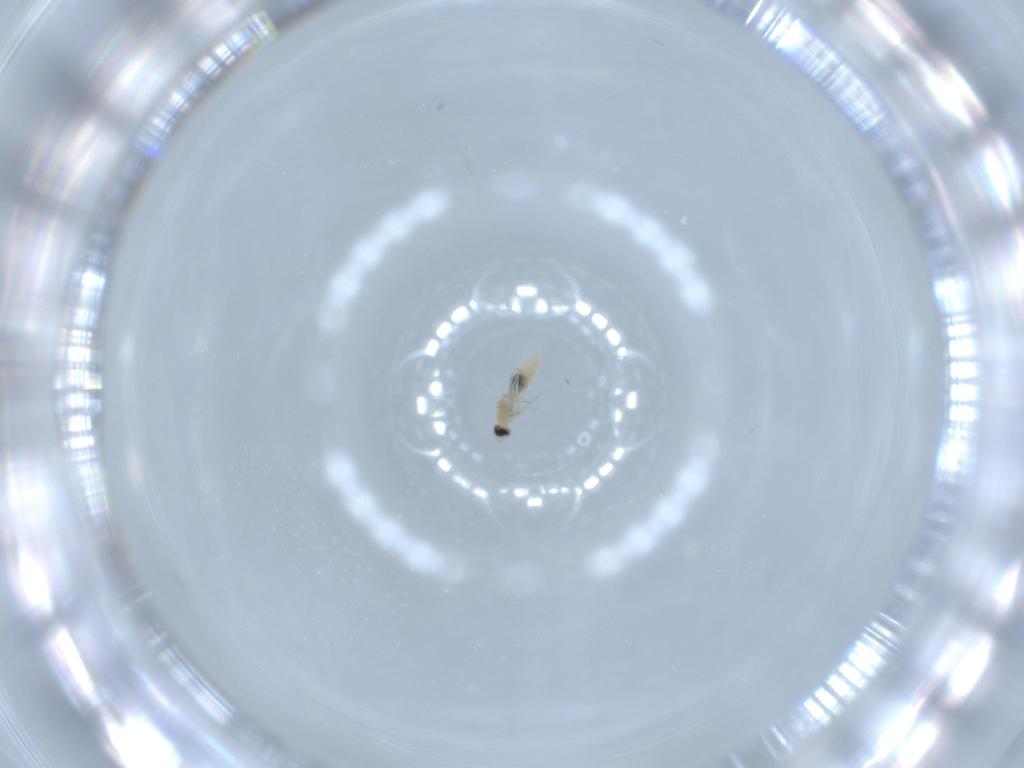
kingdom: Animalia
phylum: Arthropoda
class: Insecta
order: Diptera
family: Cecidomyiidae
